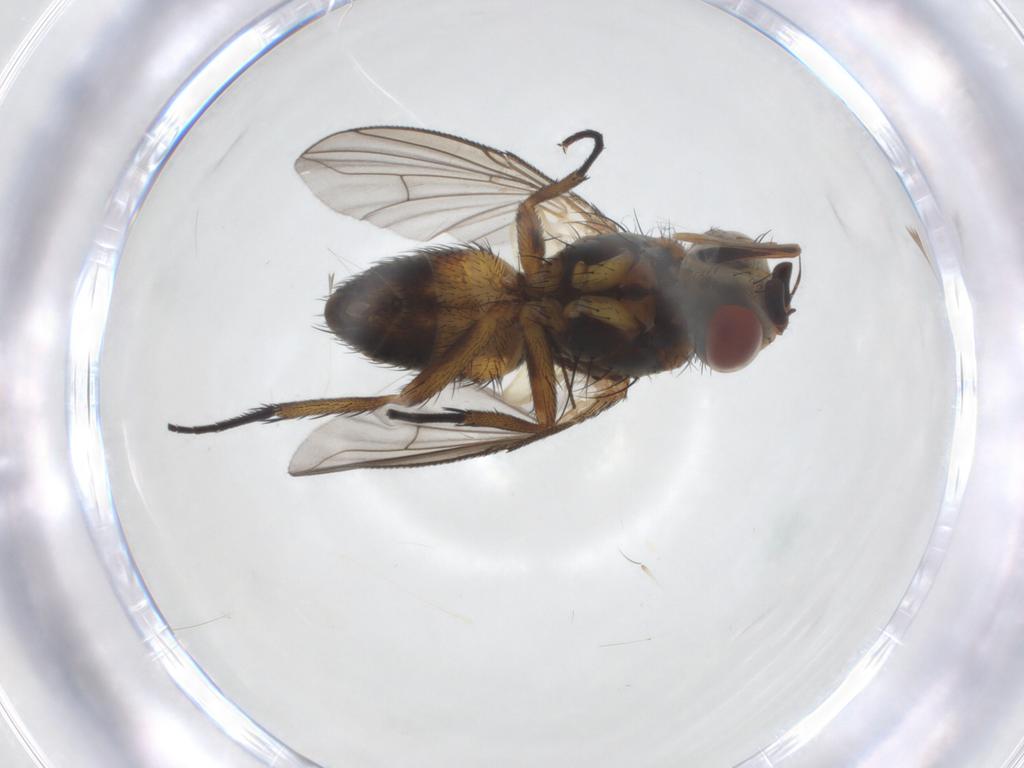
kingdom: Animalia
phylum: Arthropoda
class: Insecta
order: Diptera
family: Tachinidae
